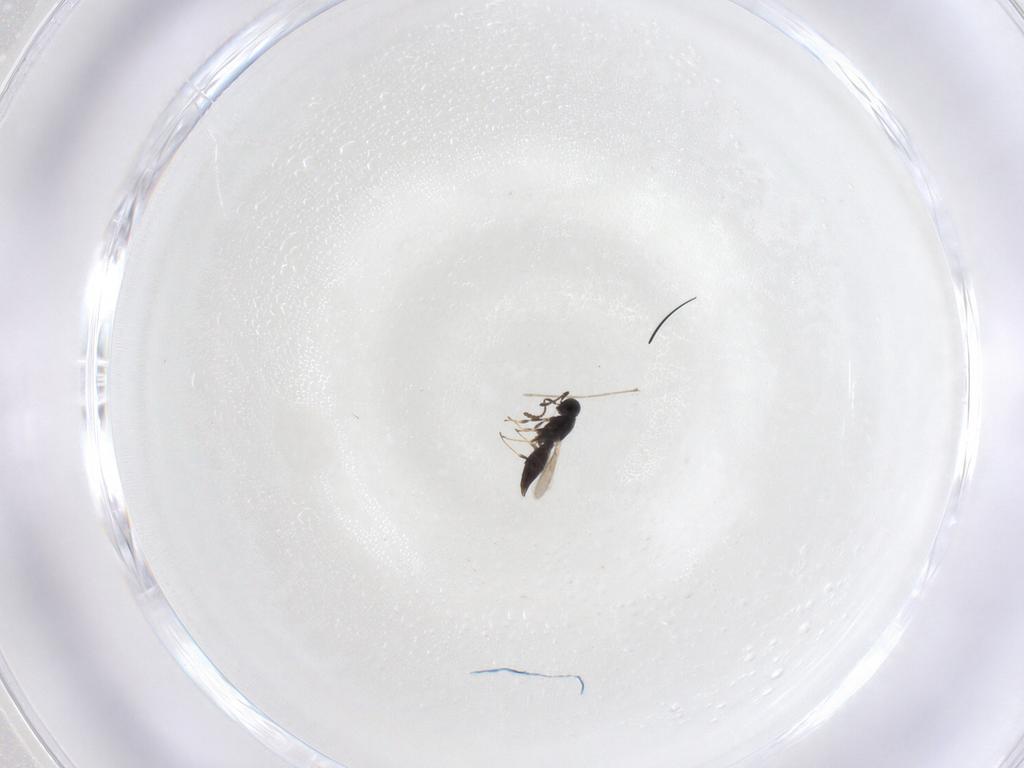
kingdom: Animalia
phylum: Arthropoda
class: Insecta
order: Hymenoptera
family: Scelionidae
